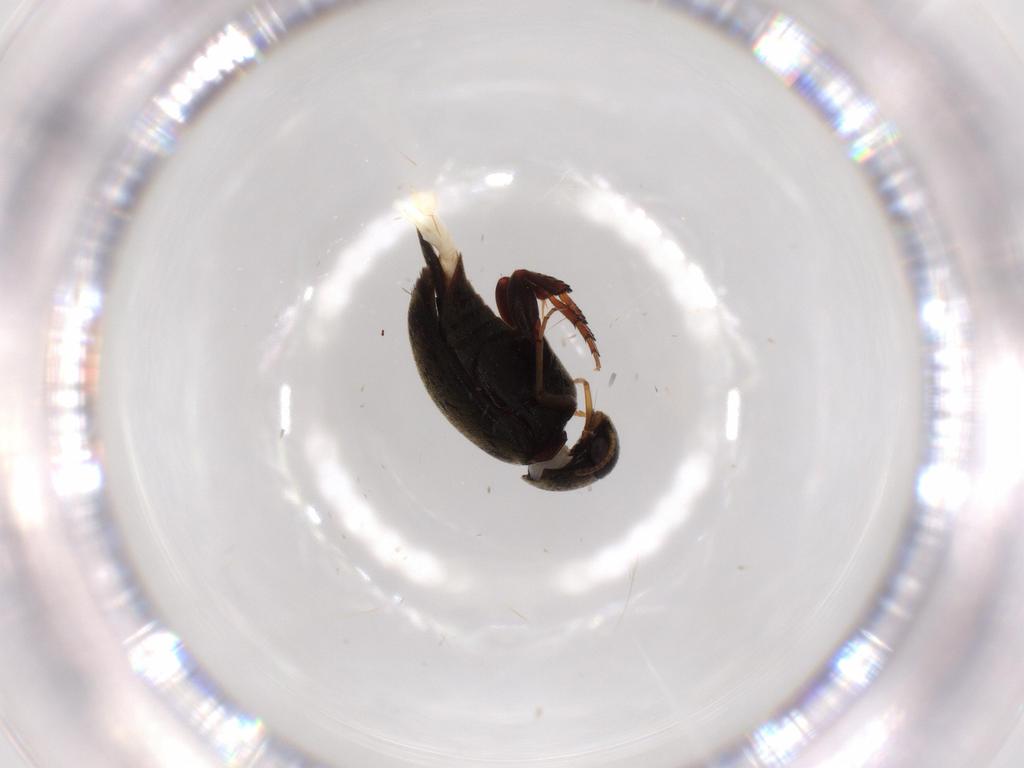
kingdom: Animalia
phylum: Arthropoda
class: Insecta
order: Coleoptera
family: Mordellidae
